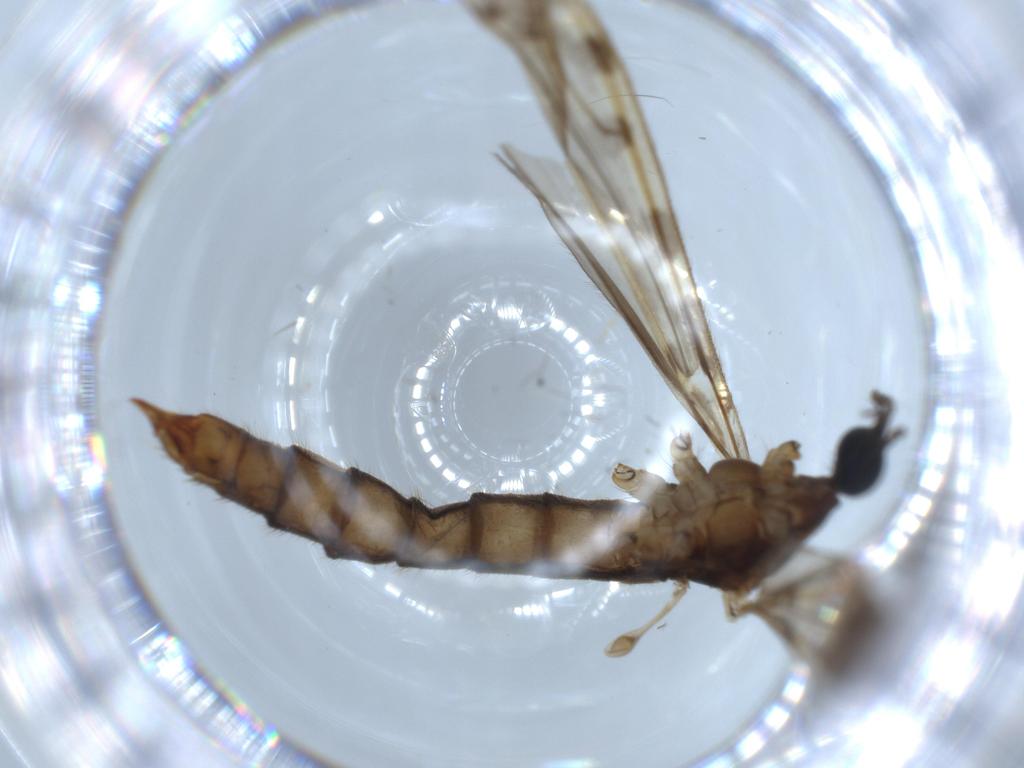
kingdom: Animalia
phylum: Arthropoda
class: Insecta
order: Diptera
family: Chironomidae
